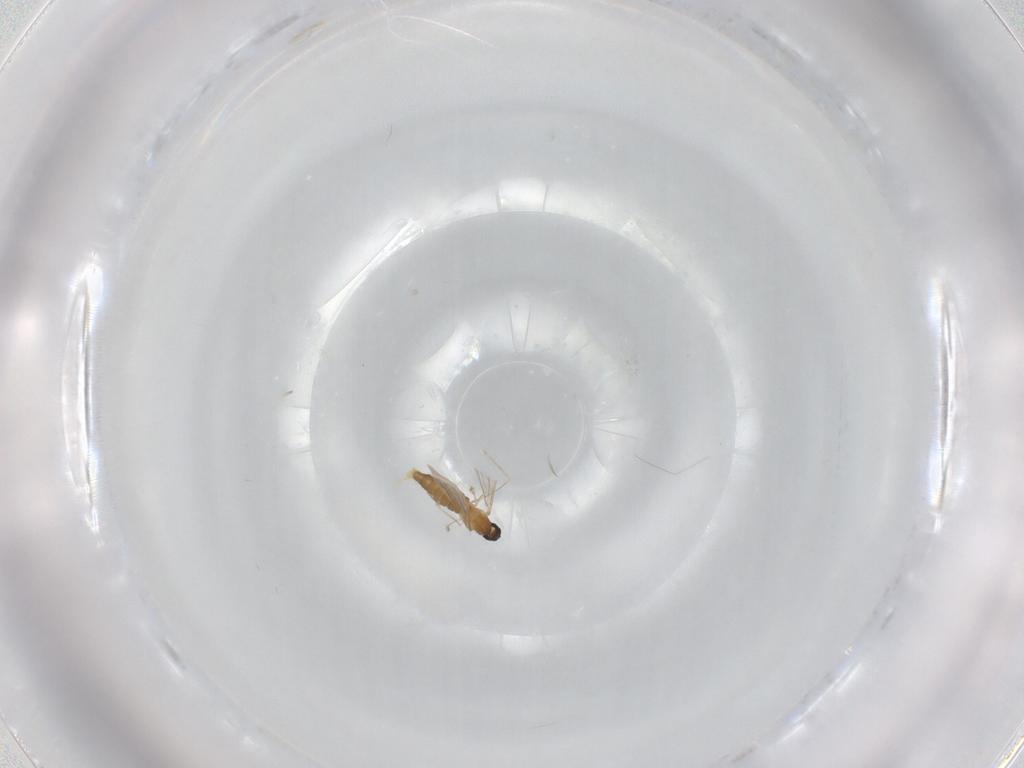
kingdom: Animalia
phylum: Arthropoda
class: Insecta
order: Diptera
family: Cecidomyiidae
